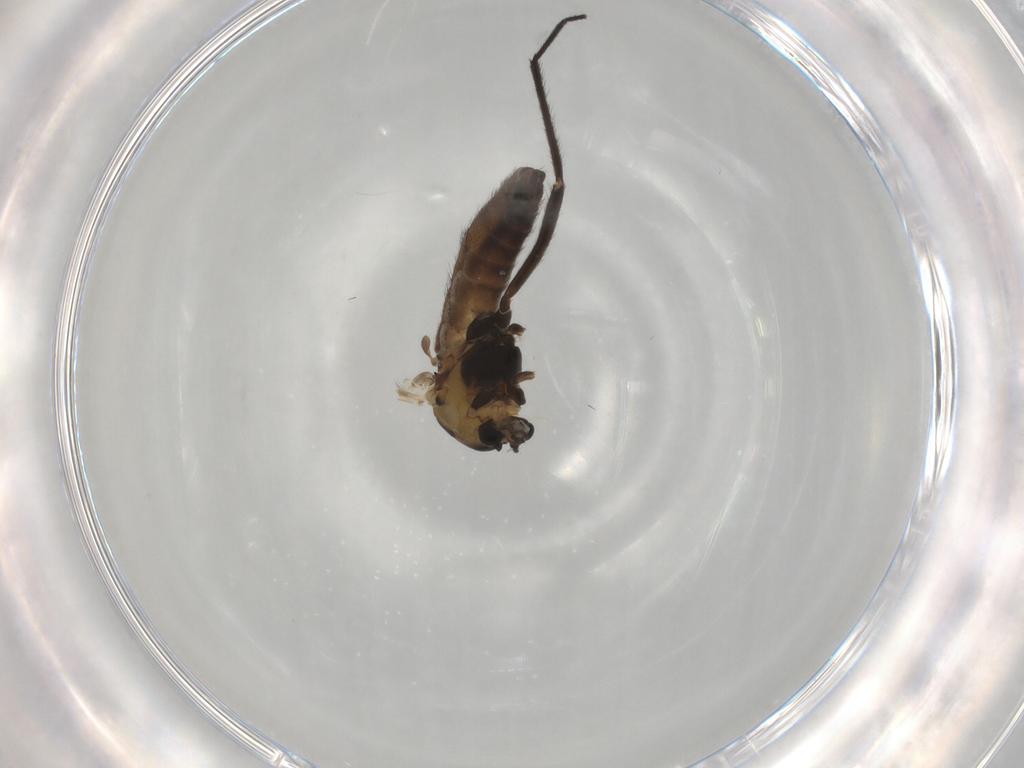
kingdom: Animalia
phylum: Arthropoda
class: Insecta
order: Diptera
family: Chironomidae
